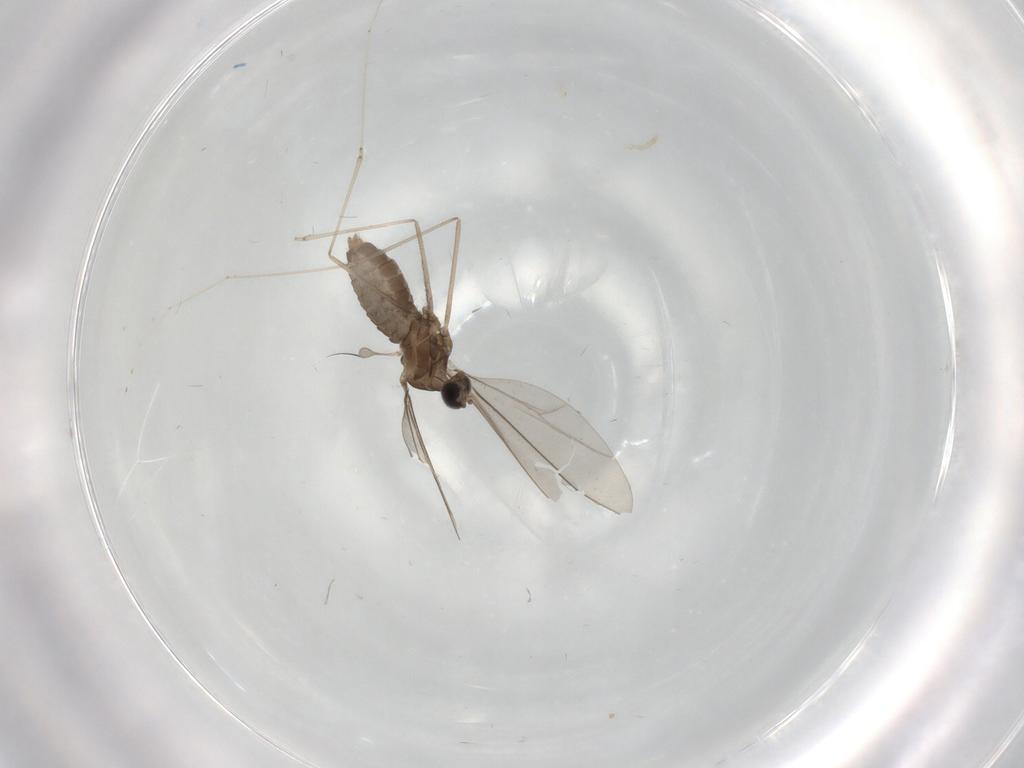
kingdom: Animalia
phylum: Arthropoda
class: Insecta
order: Diptera
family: Cecidomyiidae
